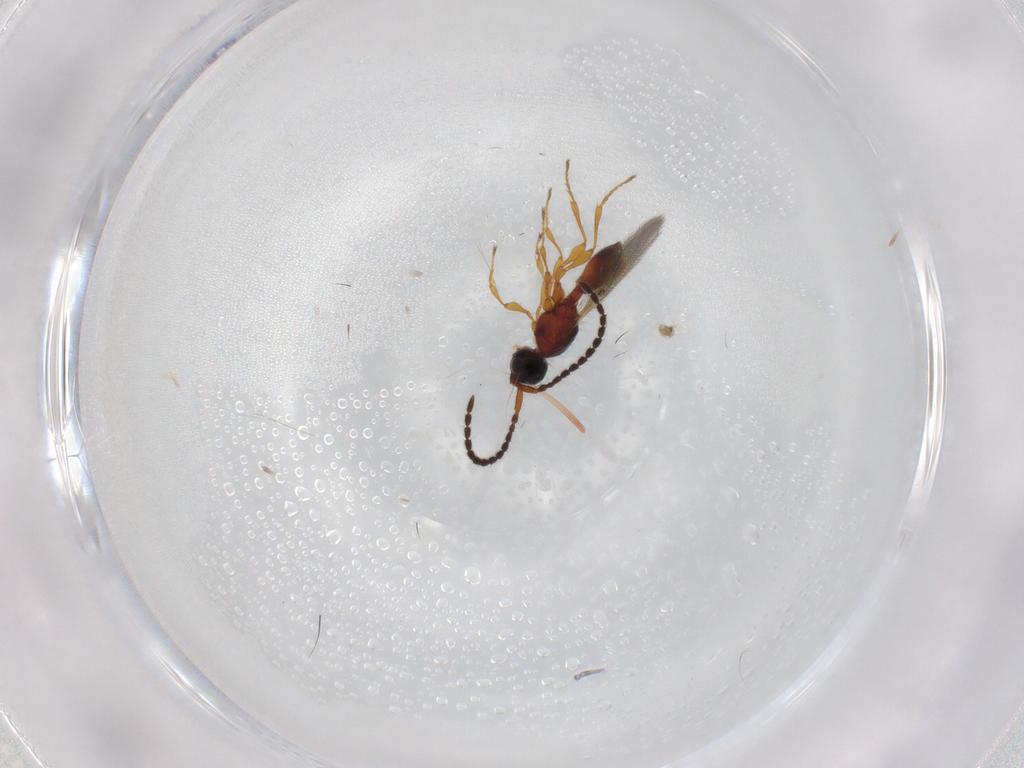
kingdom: Animalia
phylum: Arthropoda
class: Insecta
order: Hymenoptera
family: Diapriidae
